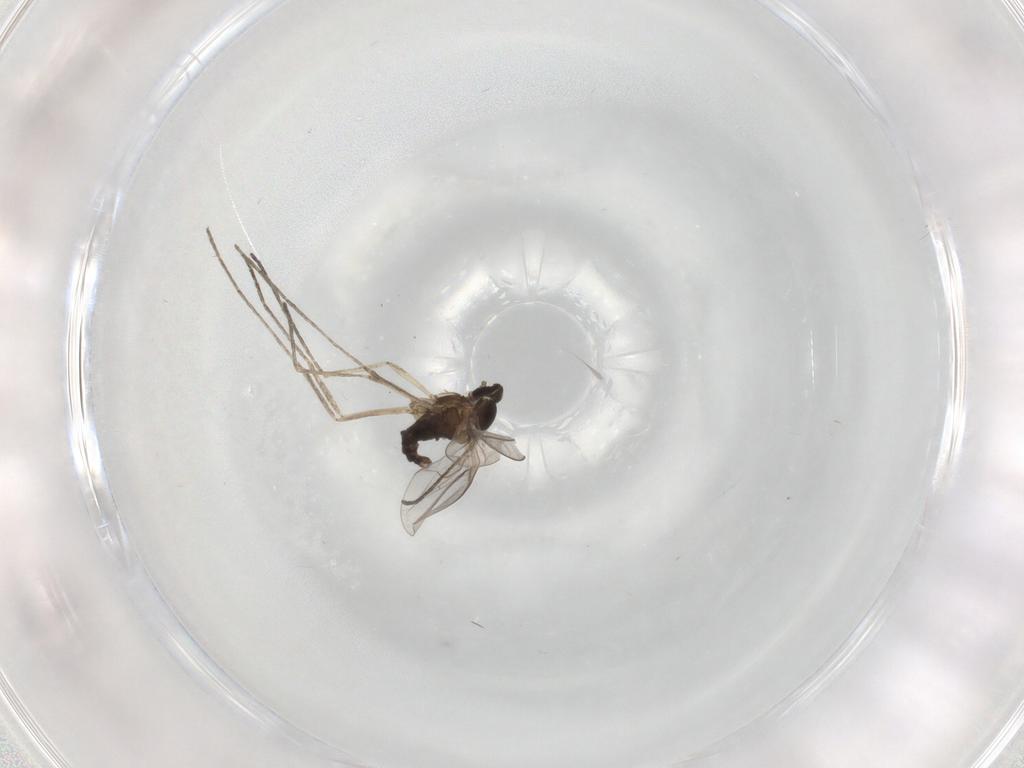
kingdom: Animalia
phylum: Arthropoda
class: Insecta
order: Diptera
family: Cecidomyiidae
